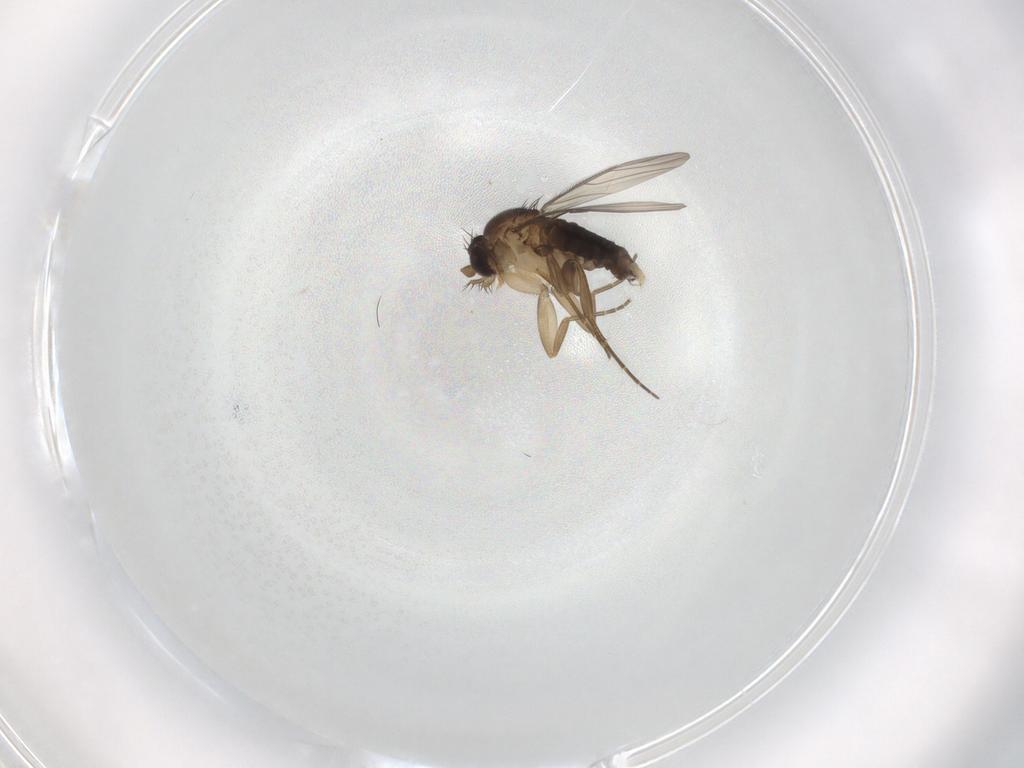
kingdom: Animalia
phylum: Arthropoda
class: Insecta
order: Diptera
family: Phoridae
